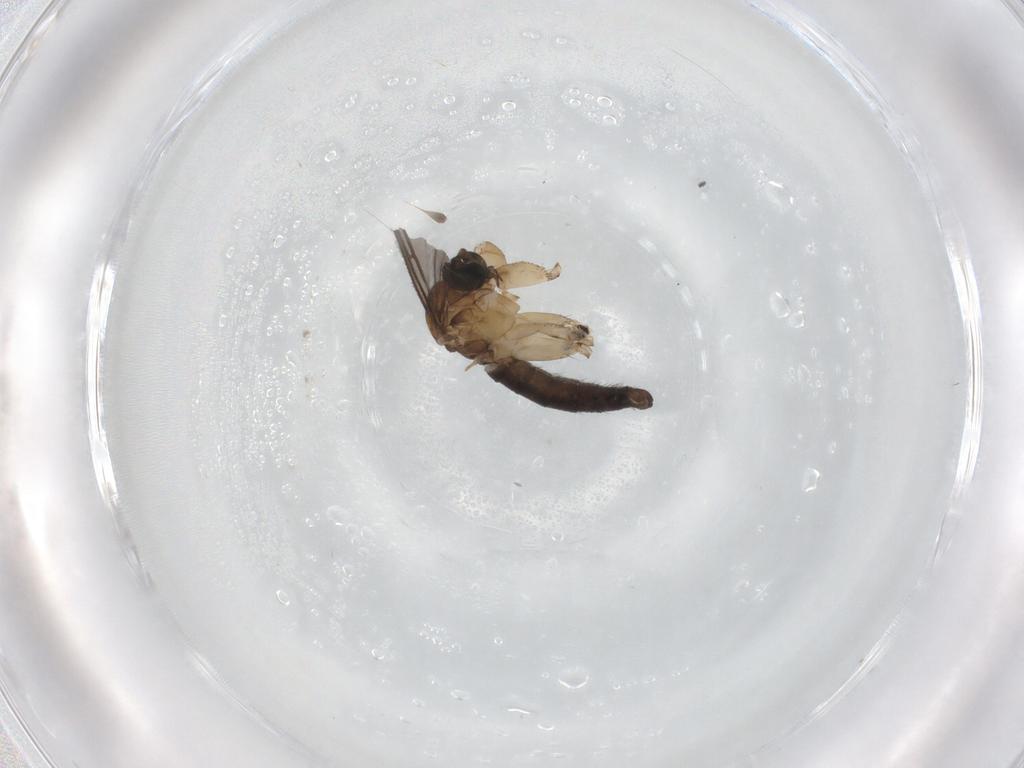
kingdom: Animalia
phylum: Arthropoda
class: Insecta
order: Diptera
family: Sciaridae
